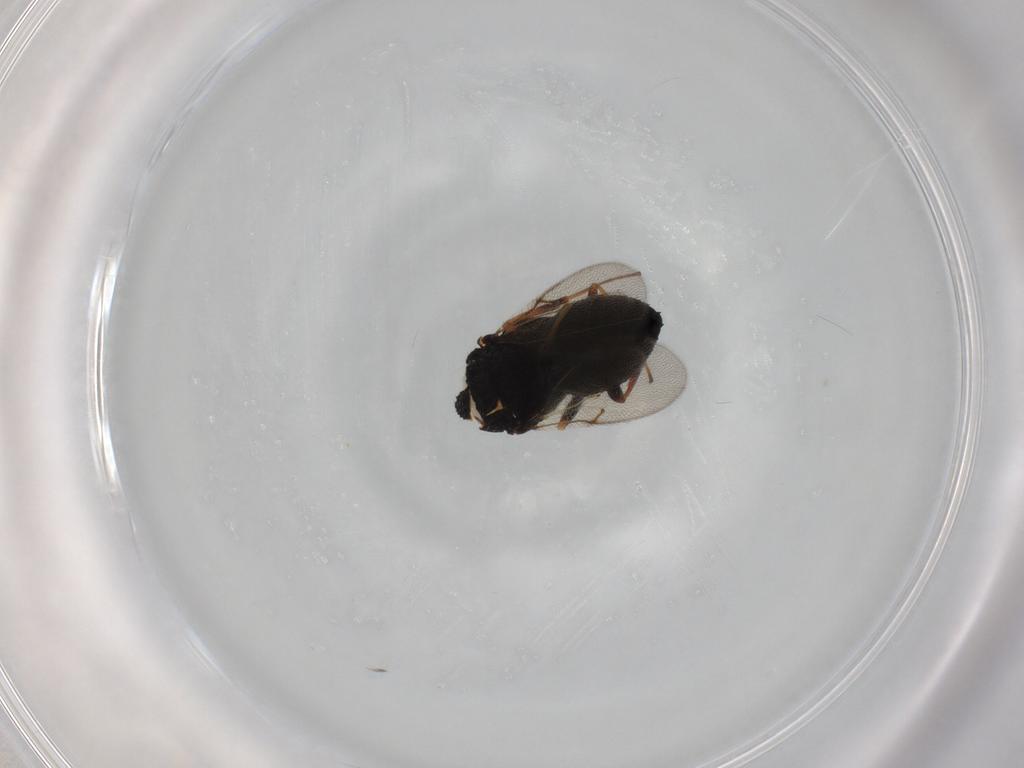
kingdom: Animalia
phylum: Arthropoda
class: Insecta
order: Hymenoptera
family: Scelionidae
